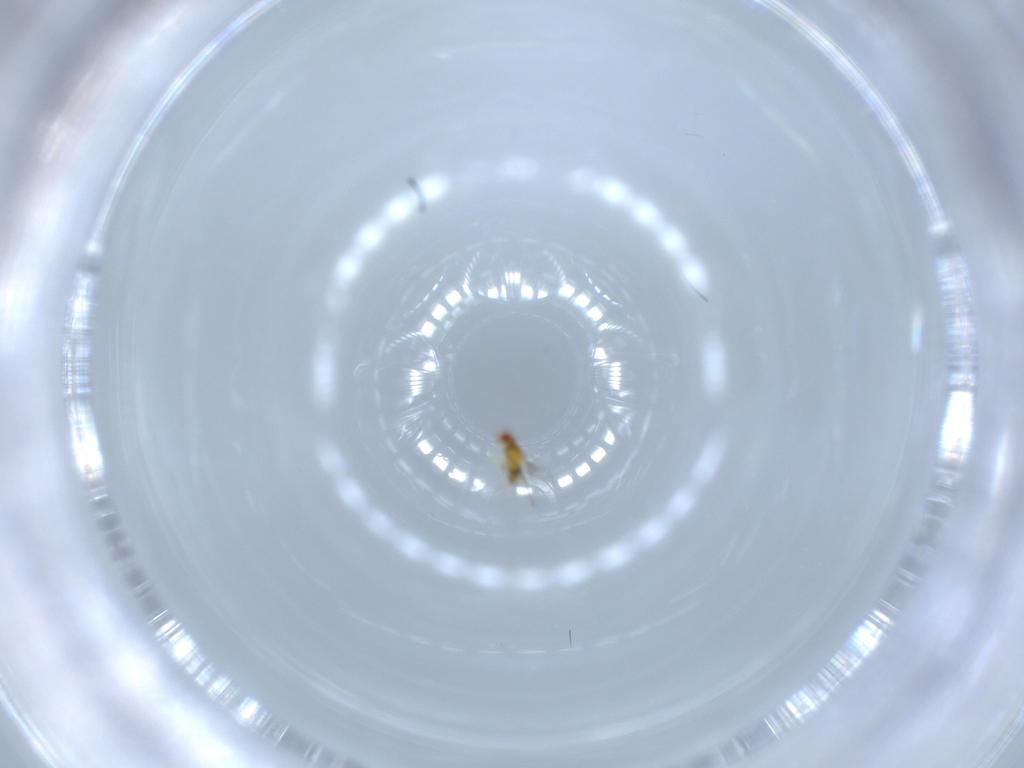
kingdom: Animalia
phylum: Arthropoda
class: Insecta
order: Hymenoptera
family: Trichogrammatidae
